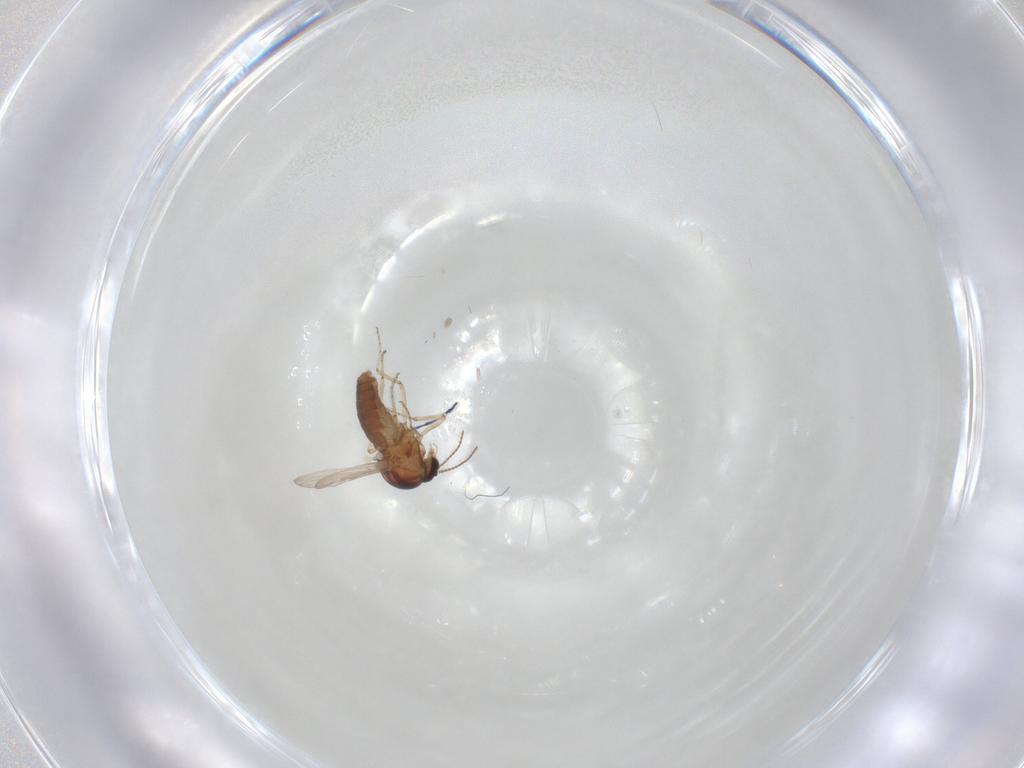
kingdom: Animalia
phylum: Arthropoda
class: Insecta
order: Diptera
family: Ceratopogonidae
